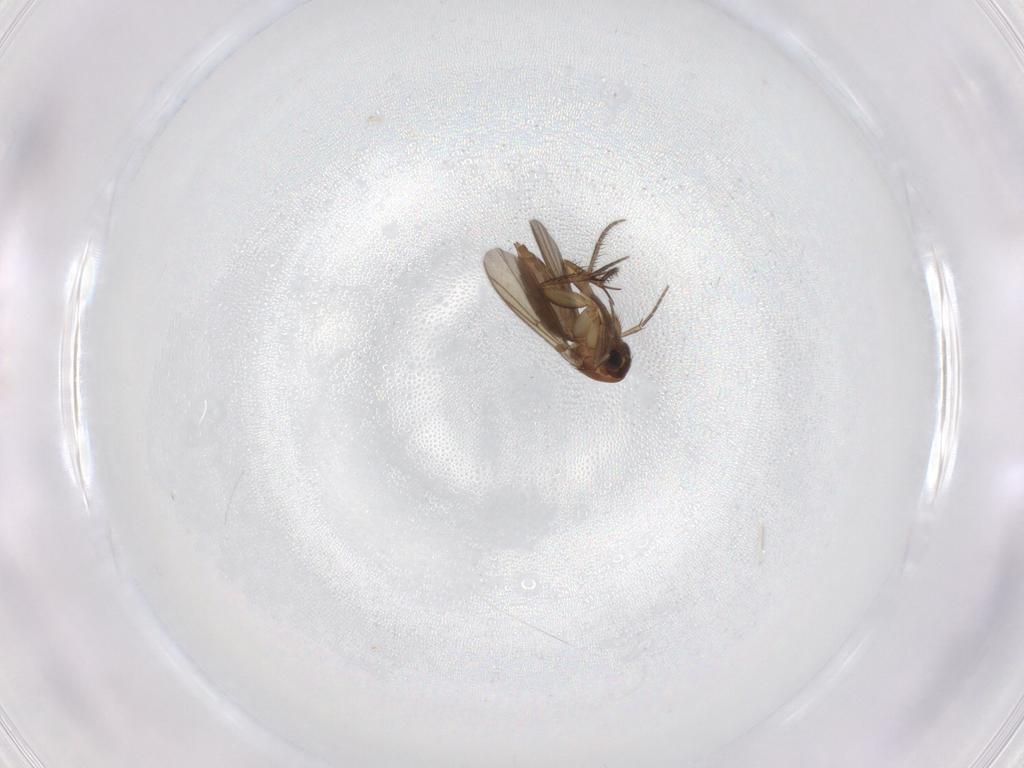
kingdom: Animalia
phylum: Arthropoda
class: Insecta
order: Diptera
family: Mycetophilidae
